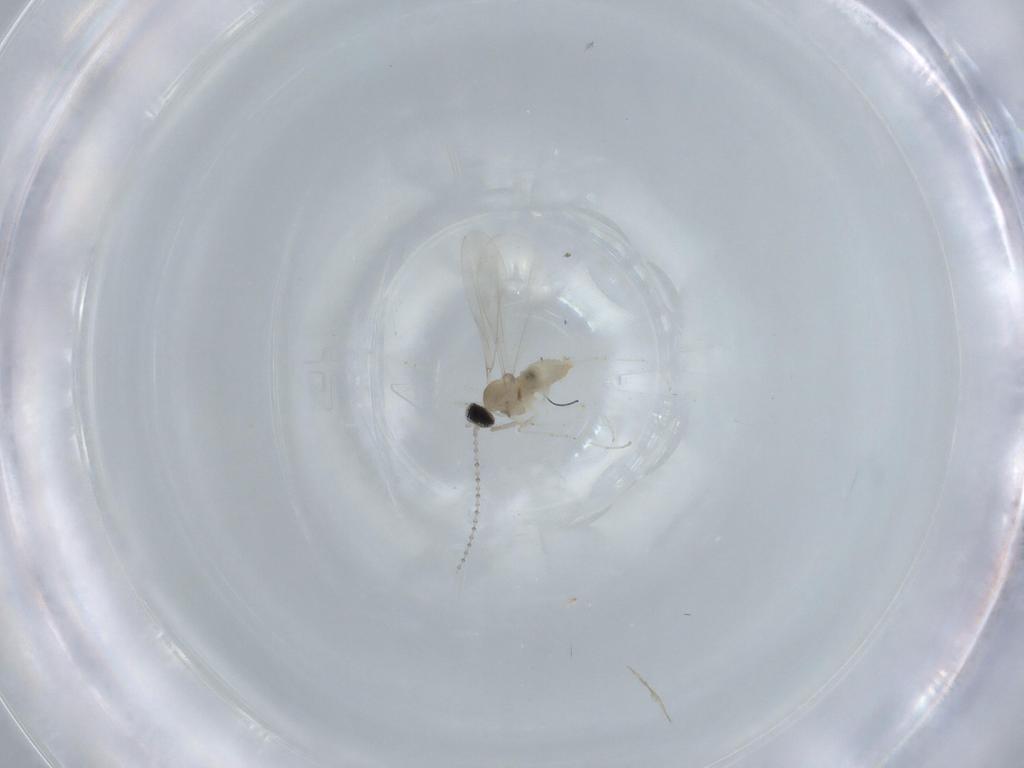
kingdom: Animalia
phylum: Arthropoda
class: Insecta
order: Diptera
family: Cecidomyiidae
